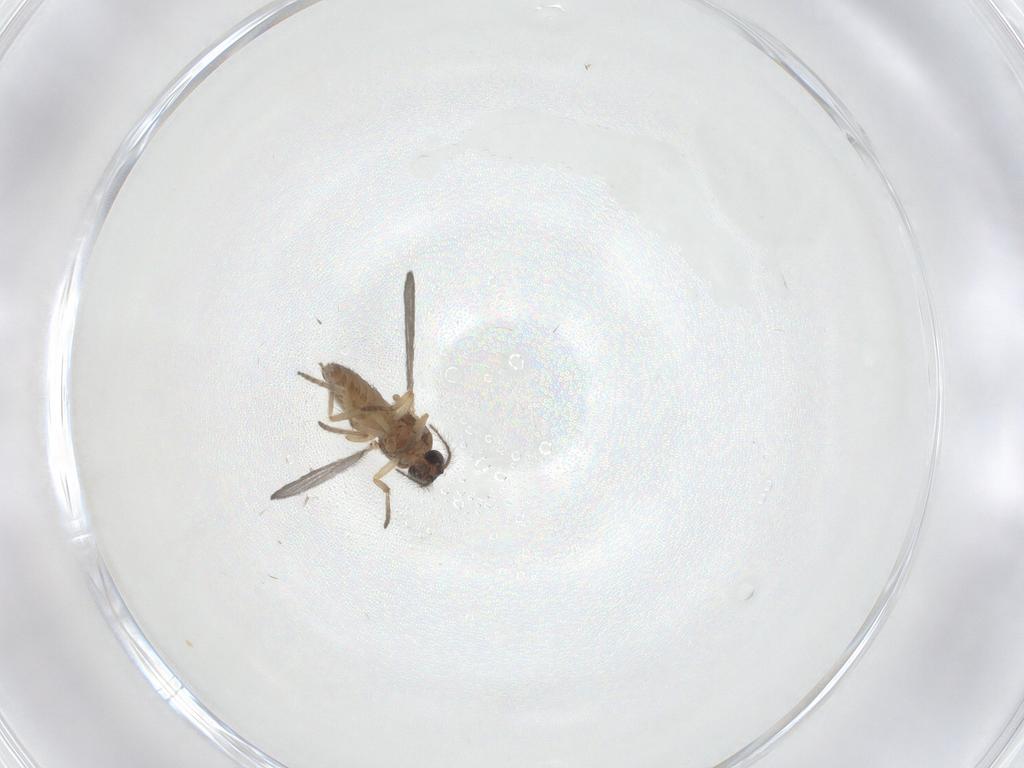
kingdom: Animalia
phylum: Arthropoda
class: Insecta
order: Diptera
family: Ceratopogonidae
